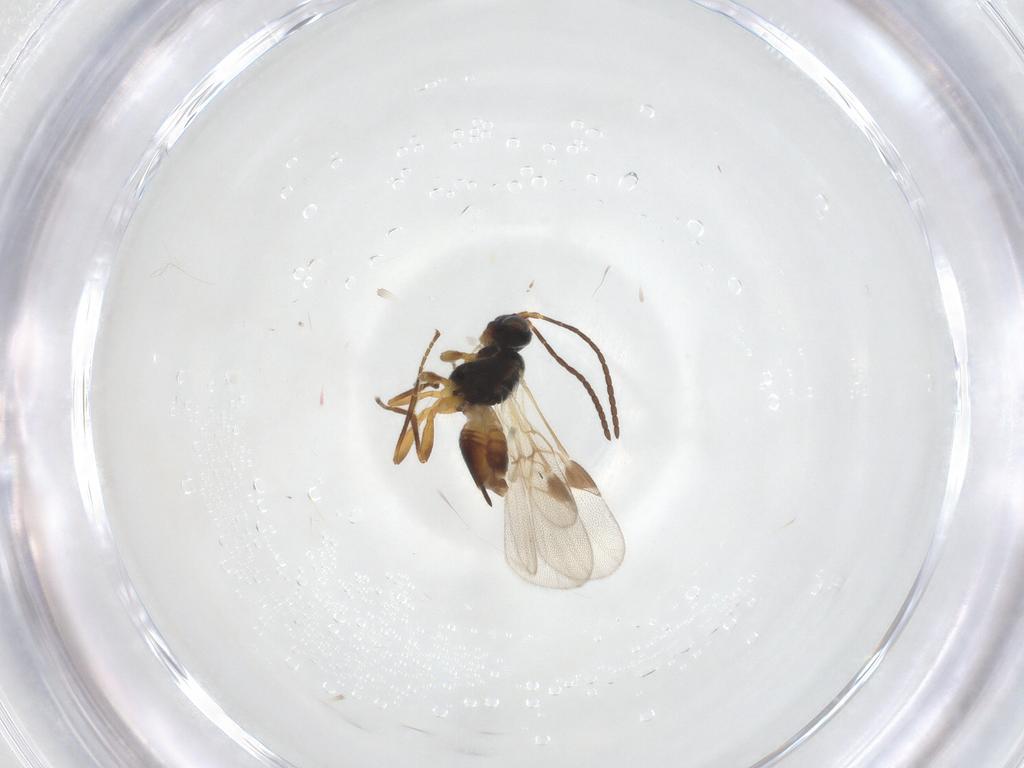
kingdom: Animalia
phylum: Arthropoda
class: Insecta
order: Hymenoptera
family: Braconidae
